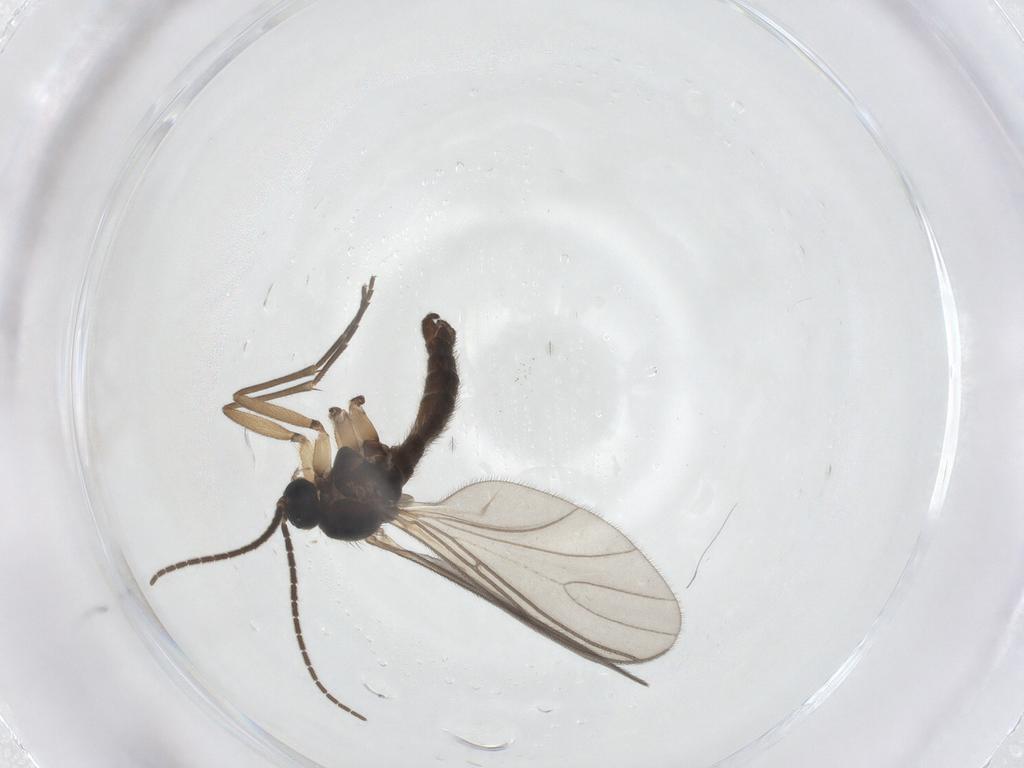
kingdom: Animalia
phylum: Arthropoda
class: Insecta
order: Diptera
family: Sciaridae
